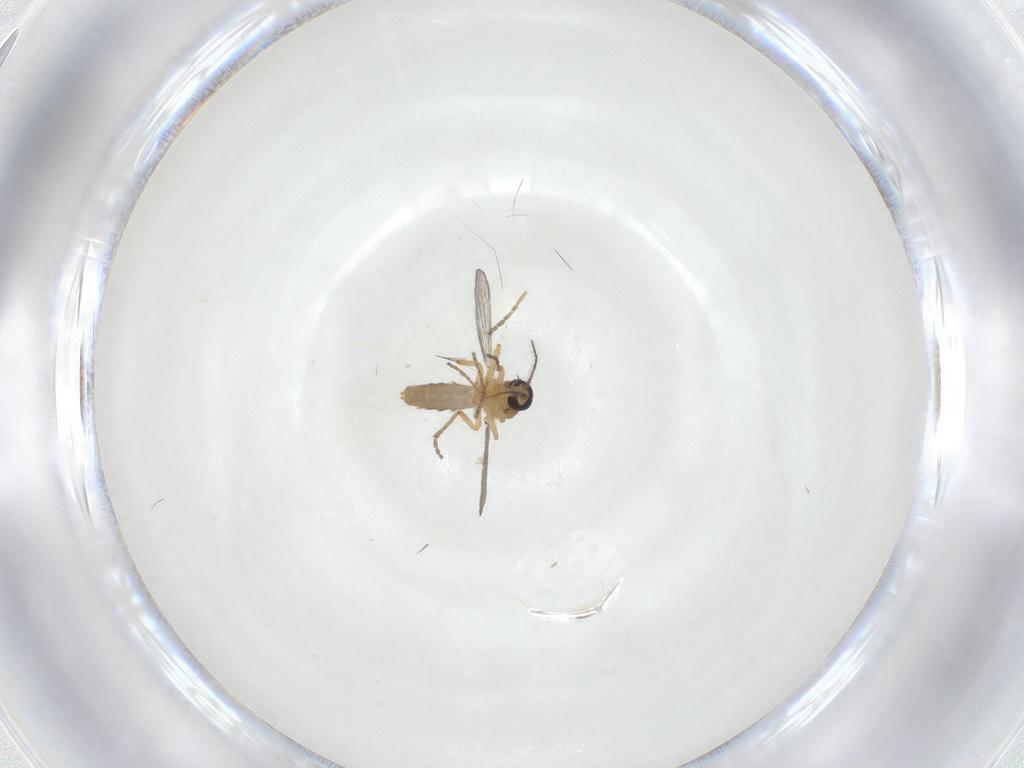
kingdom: Animalia
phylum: Arthropoda
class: Insecta
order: Diptera
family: Ceratopogonidae
